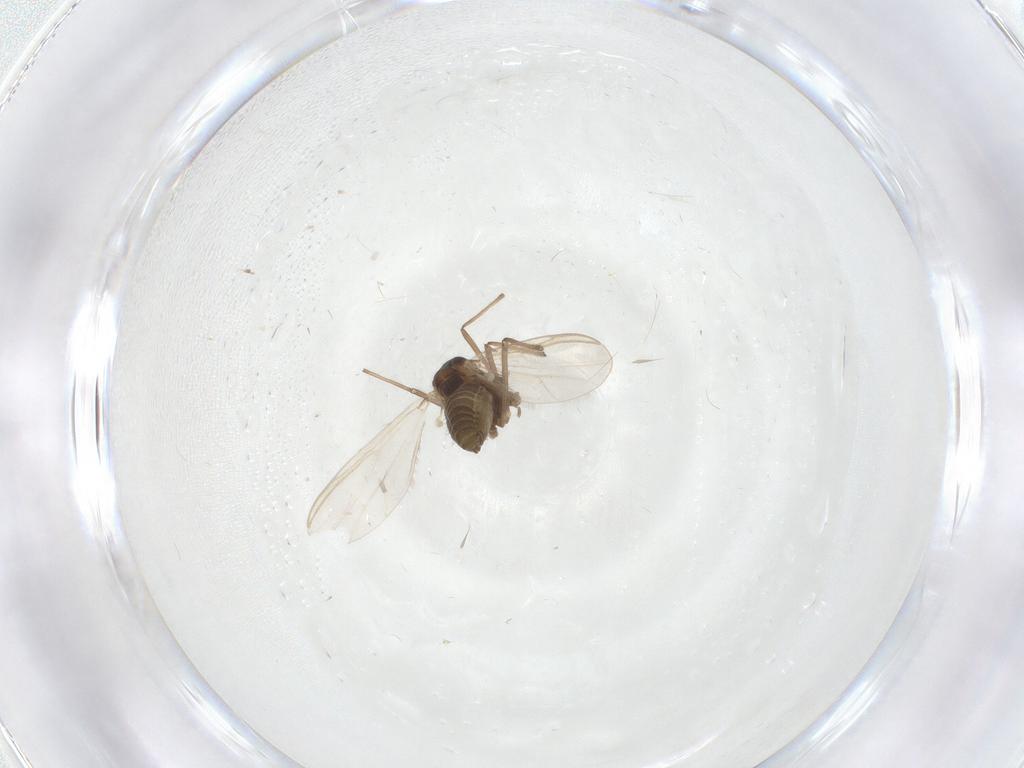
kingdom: Animalia
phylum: Arthropoda
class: Insecta
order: Diptera
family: Chironomidae
